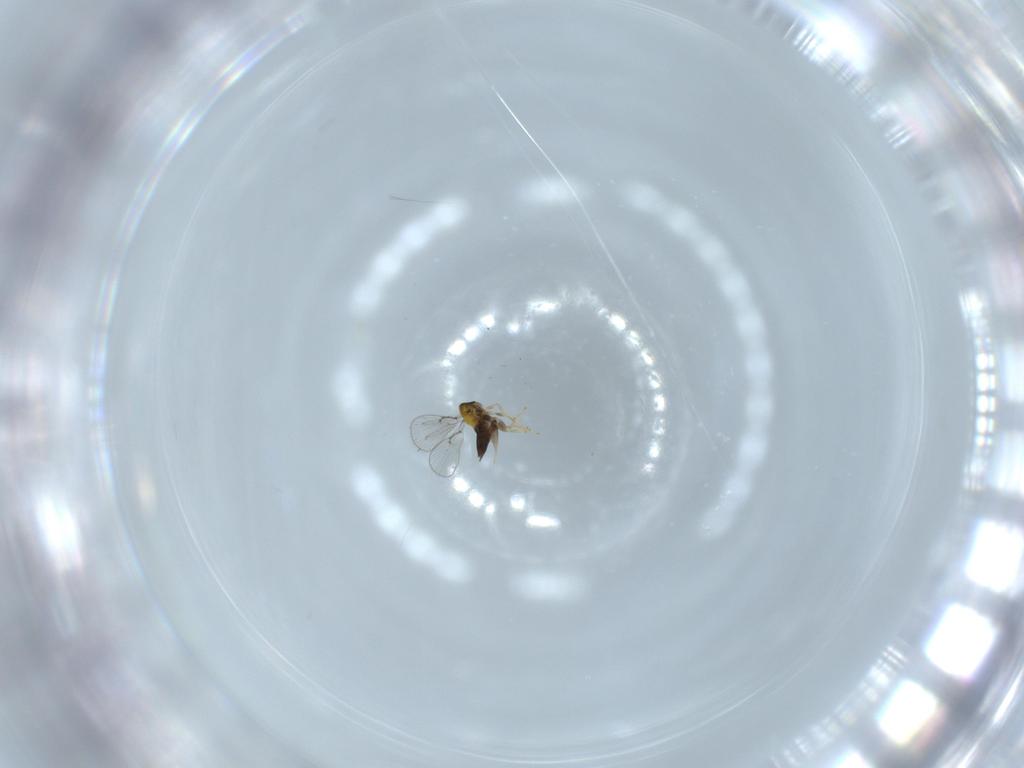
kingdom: Animalia
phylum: Arthropoda
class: Insecta
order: Hymenoptera
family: Trichogrammatidae
